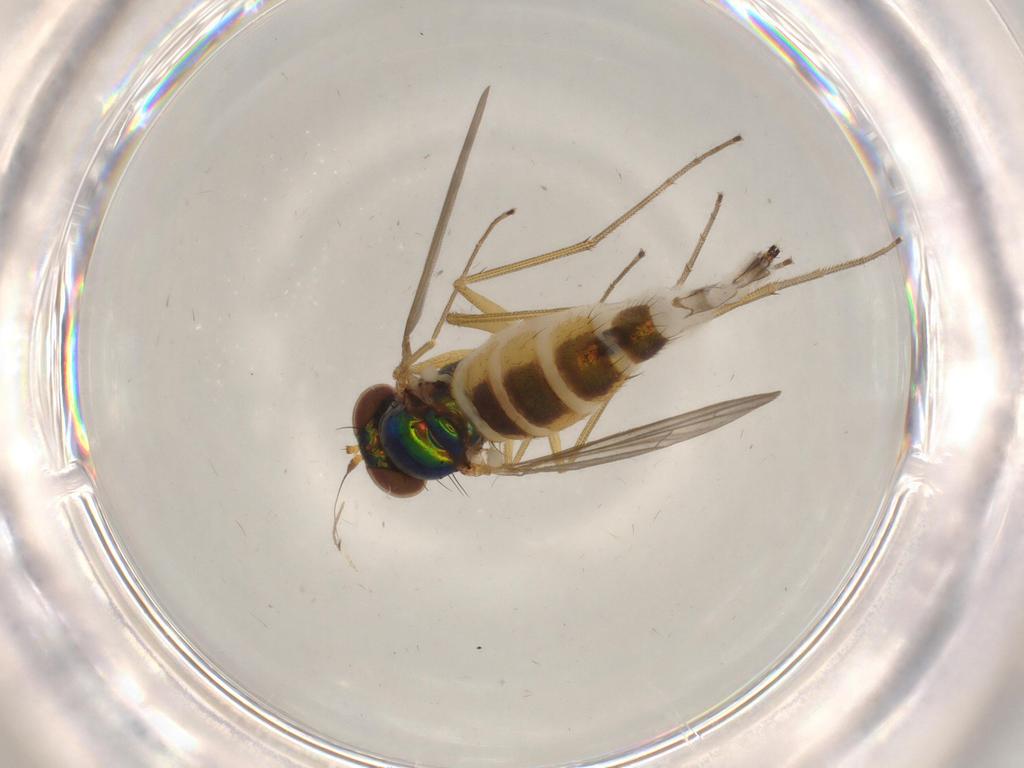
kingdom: Animalia
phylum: Arthropoda
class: Insecta
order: Diptera
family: Dolichopodidae
